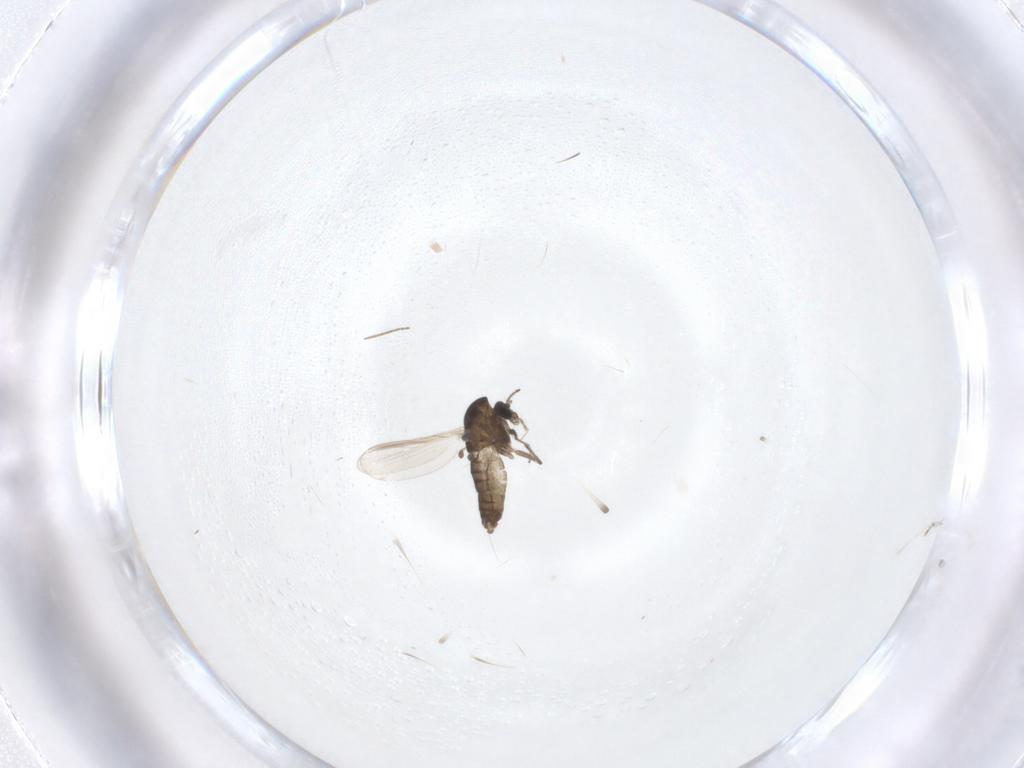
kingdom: Animalia
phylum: Arthropoda
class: Insecta
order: Diptera
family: Chironomidae
